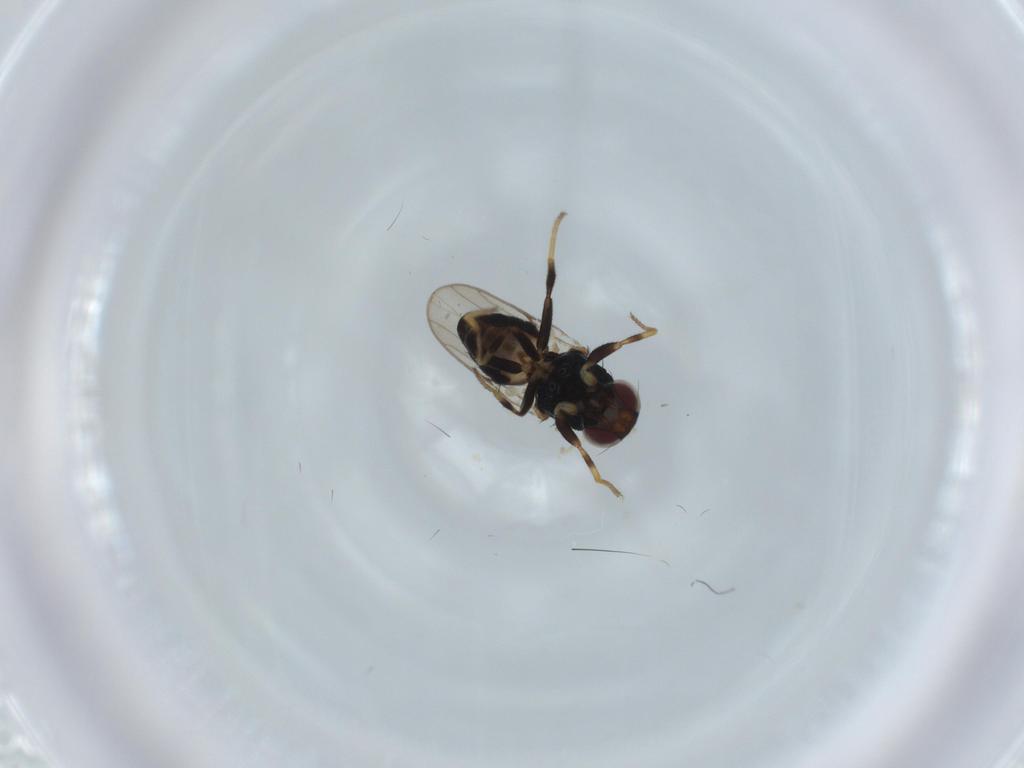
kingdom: Animalia
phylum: Arthropoda
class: Insecta
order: Diptera
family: Chloropidae
